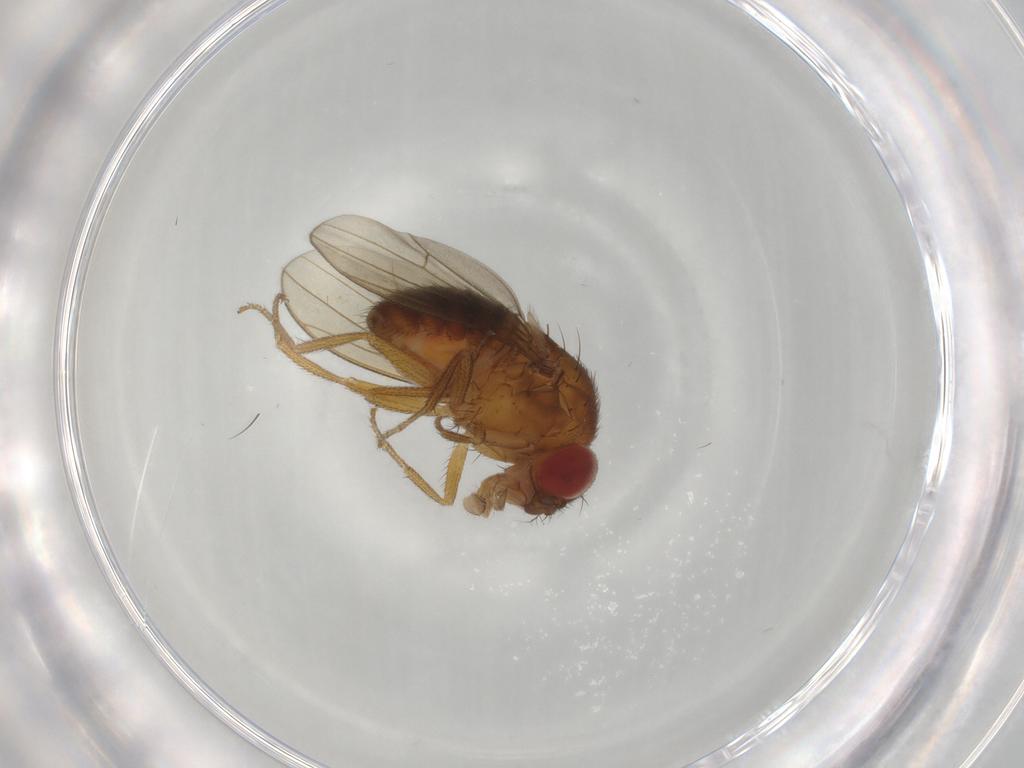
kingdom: Animalia
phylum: Arthropoda
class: Insecta
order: Diptera
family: Drosophilidae
